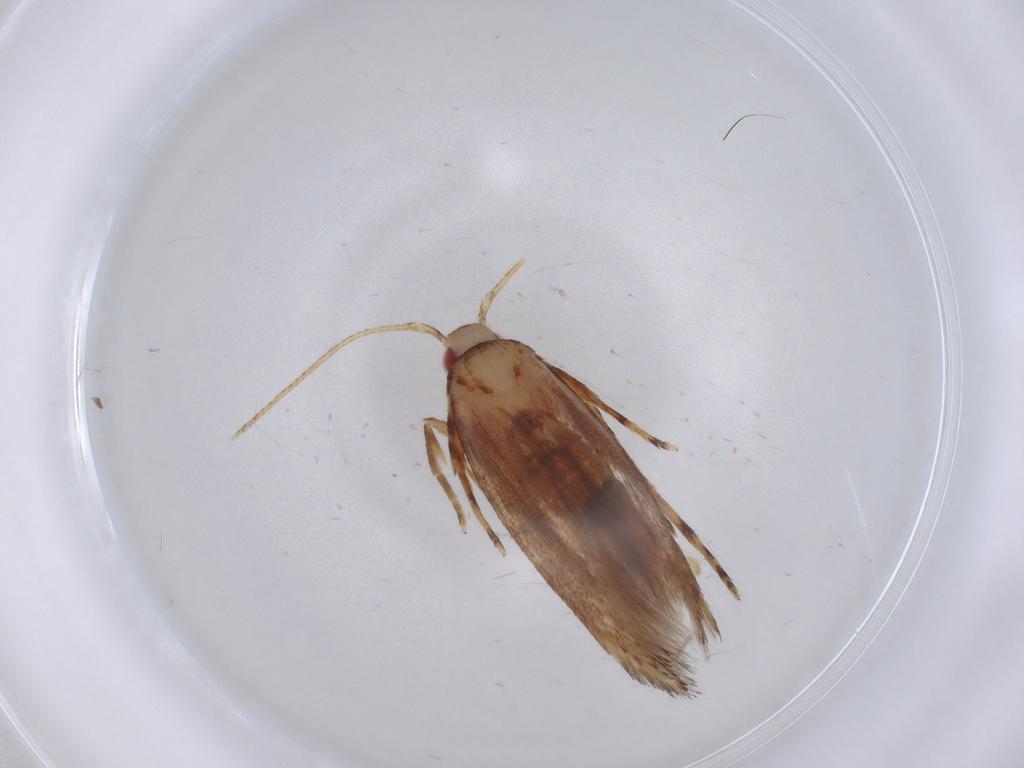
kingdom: Animalia
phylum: Arthropoda
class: Insecta
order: Lepidoptera
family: Cosmopterigidae
